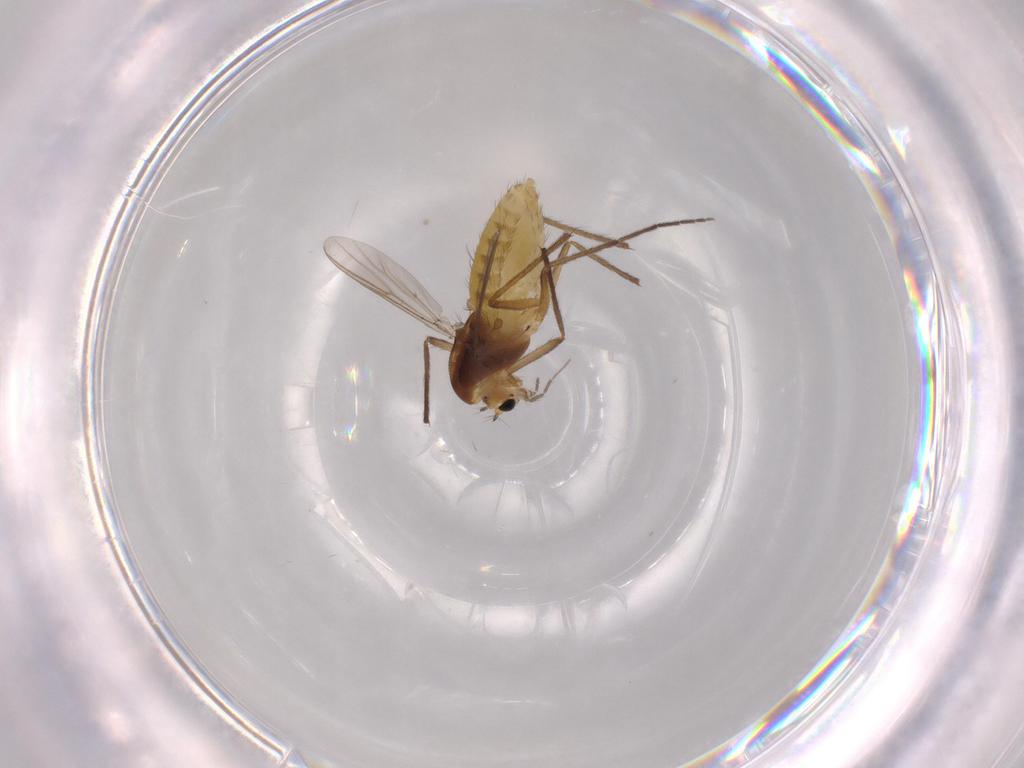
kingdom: Animalia
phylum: Arthropoda
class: Insecta
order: Diptera
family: Chironomidae
